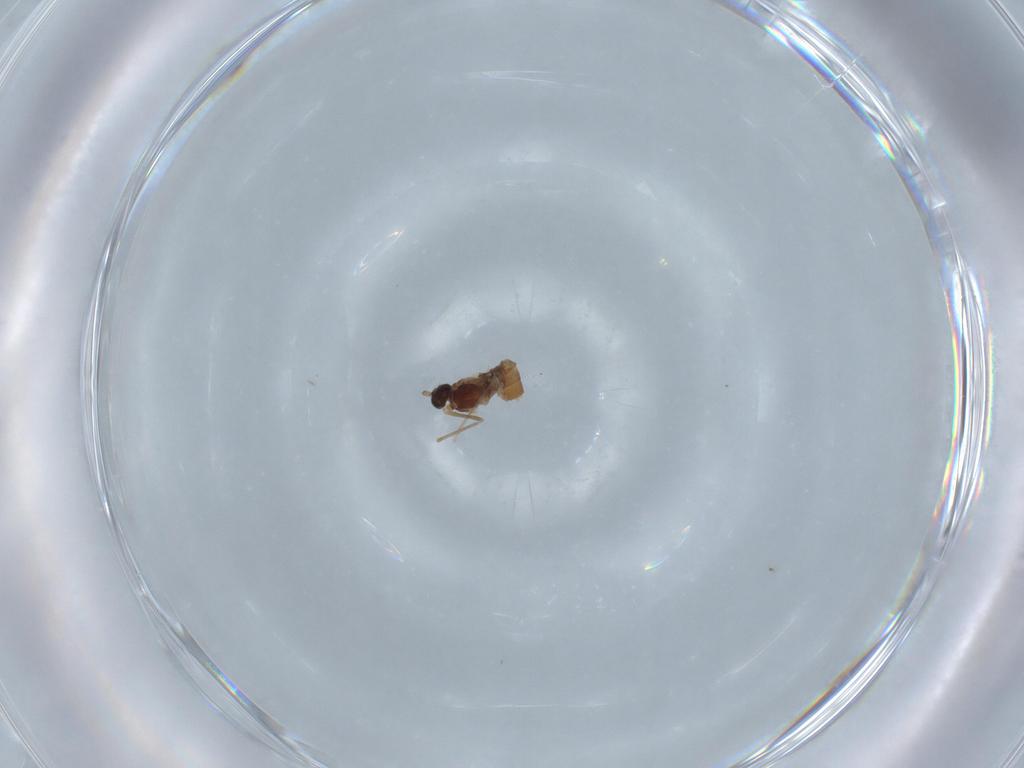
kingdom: Animalia
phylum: Arthropoda
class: Insecta
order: Diptera
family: Cecidomyiidae
